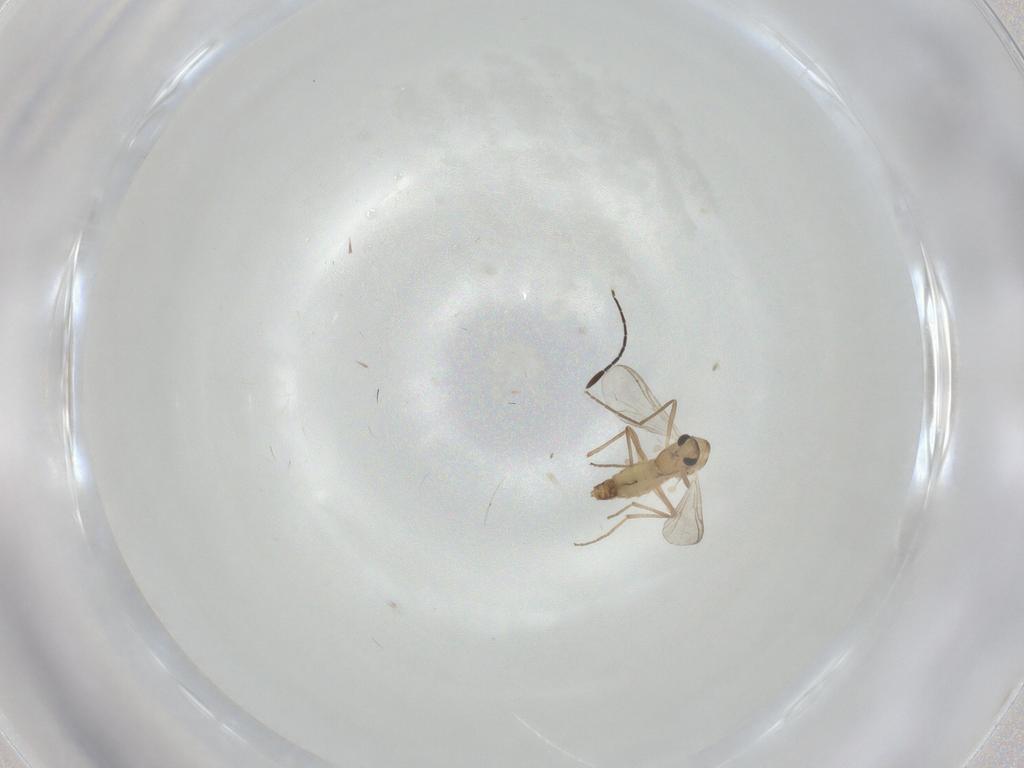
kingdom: Animalia
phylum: Arthropoda
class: Insecta
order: Diptera
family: Chironomidae
